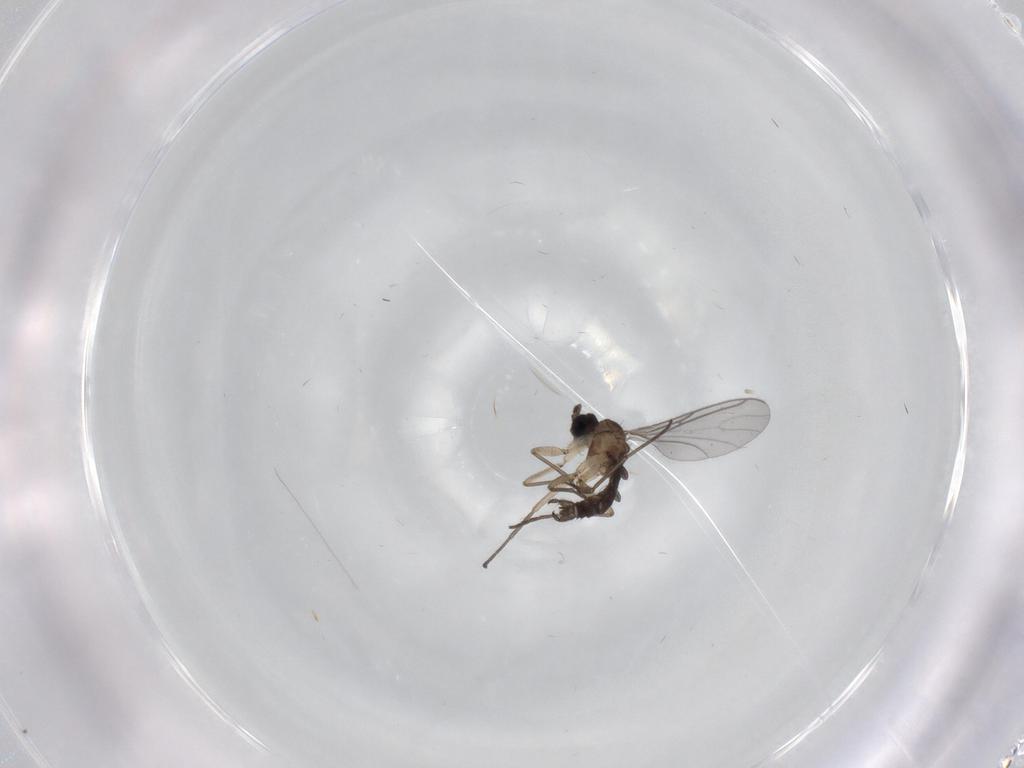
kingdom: Animalia
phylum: Arthropoda
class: Insecta
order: Diptera
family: Sciaridae
